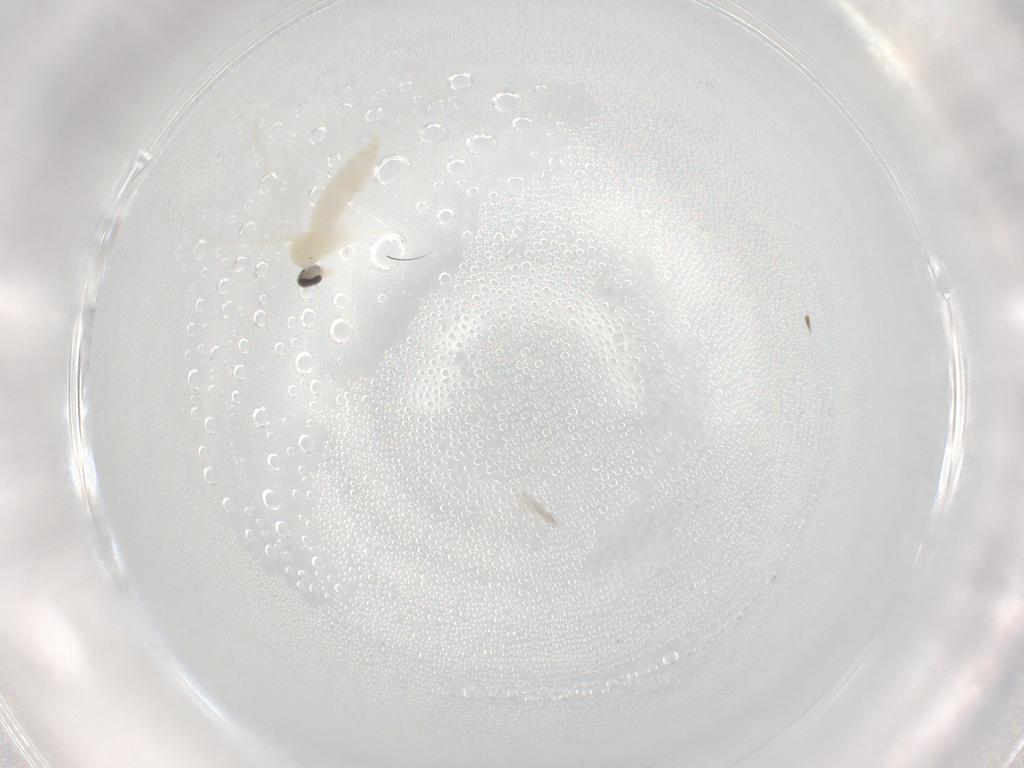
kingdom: Animalia
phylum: Arthropoda
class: Insecta
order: Diptera
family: Cecidomyiidae
